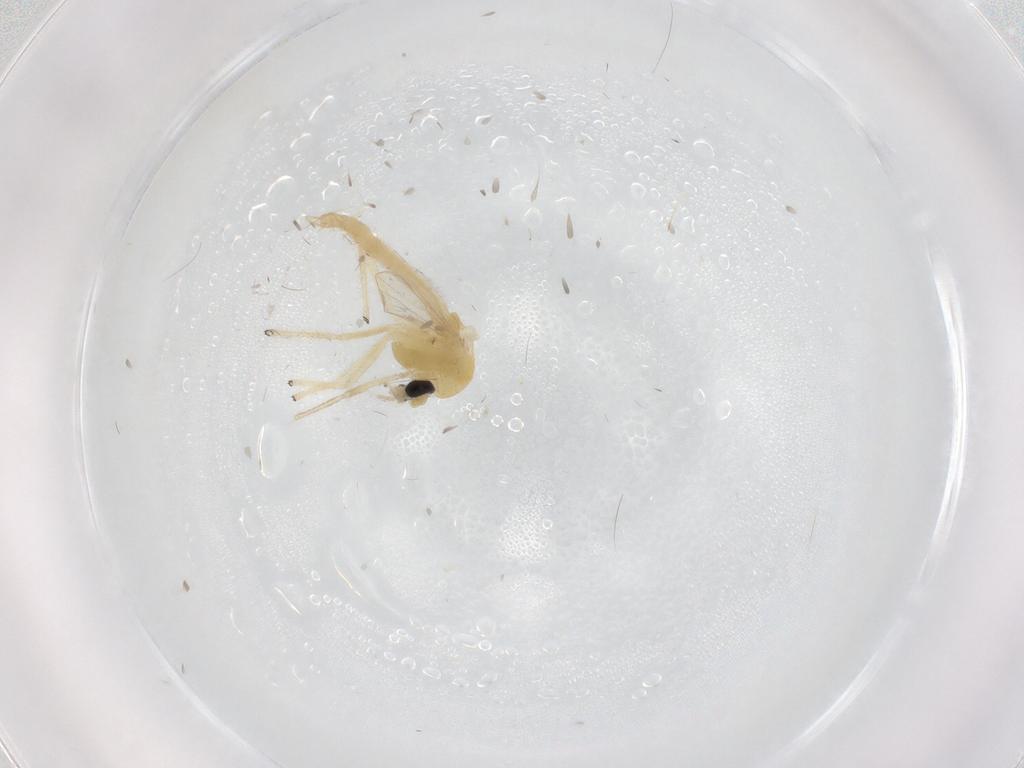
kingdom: Animalia
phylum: Arthropoda
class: Insecta
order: Diptera
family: Chironomidae
